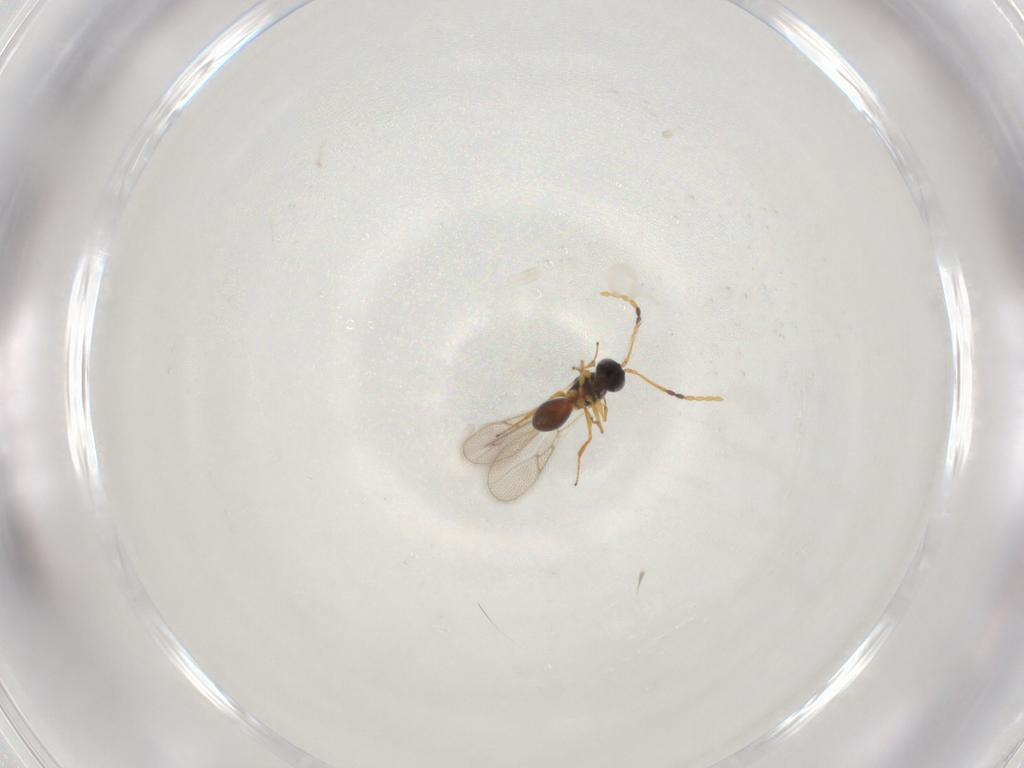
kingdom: Animalia
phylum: Arthropoda
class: Insecta
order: Hymenoptera
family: Figitidae
